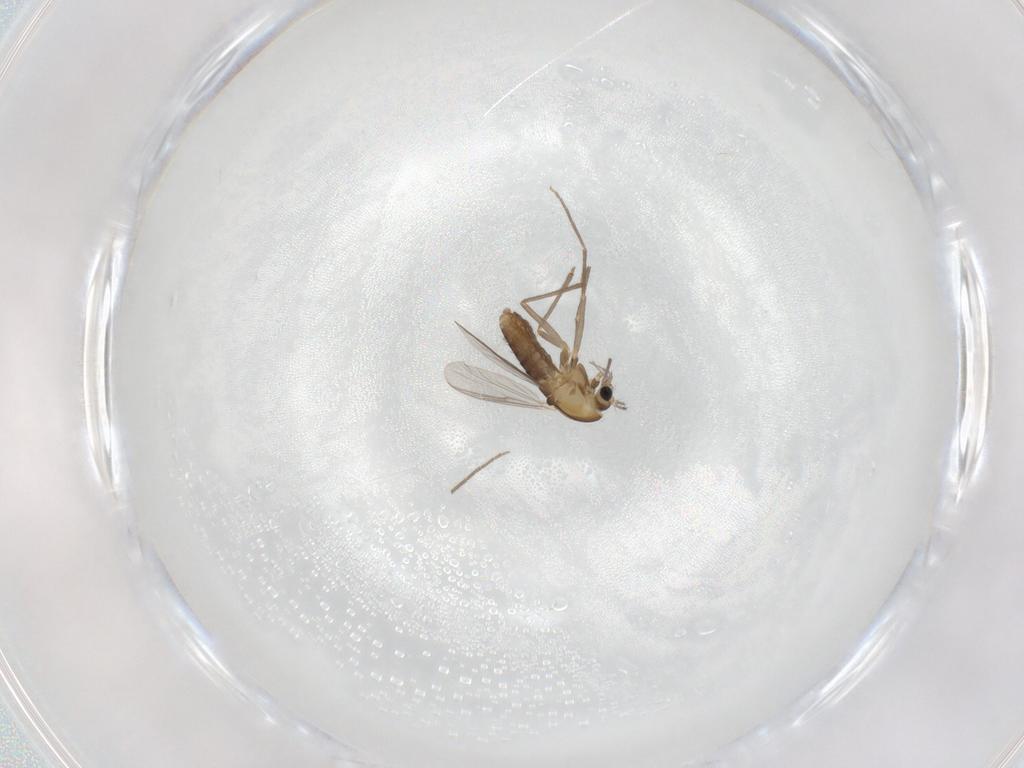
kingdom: Animalia
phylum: Arthropoda
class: Insecta
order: Diptera
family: Chironomidae
